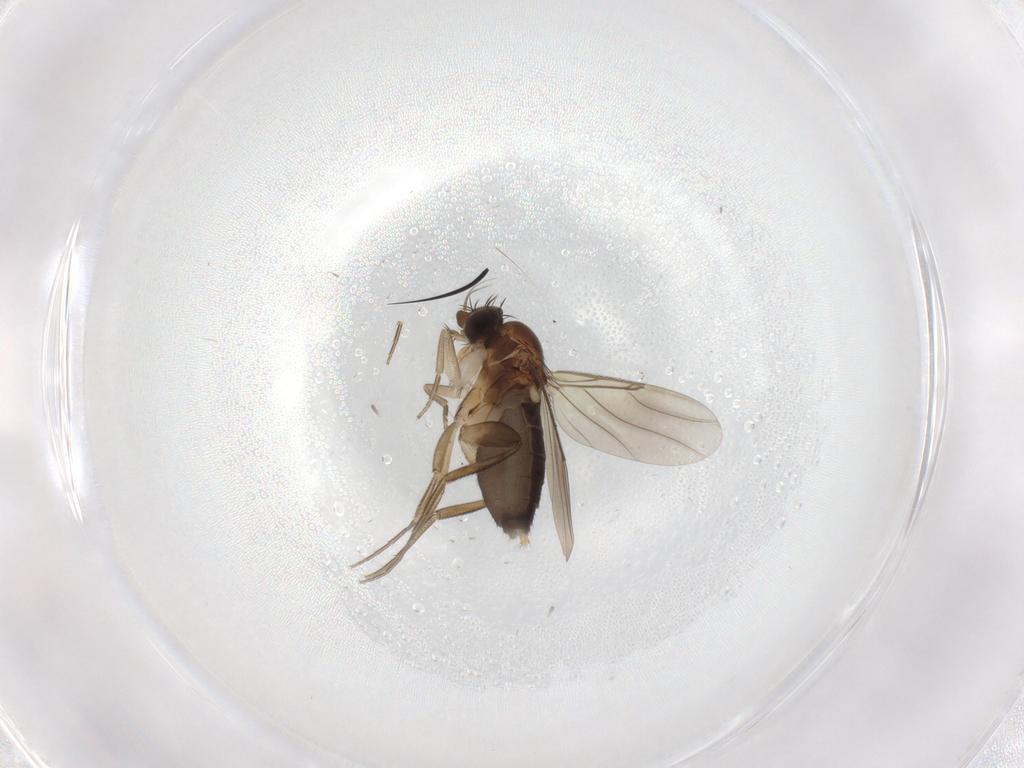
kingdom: Animalia
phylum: Arthropoda
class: Insecta
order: Diptera
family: Phoridae
